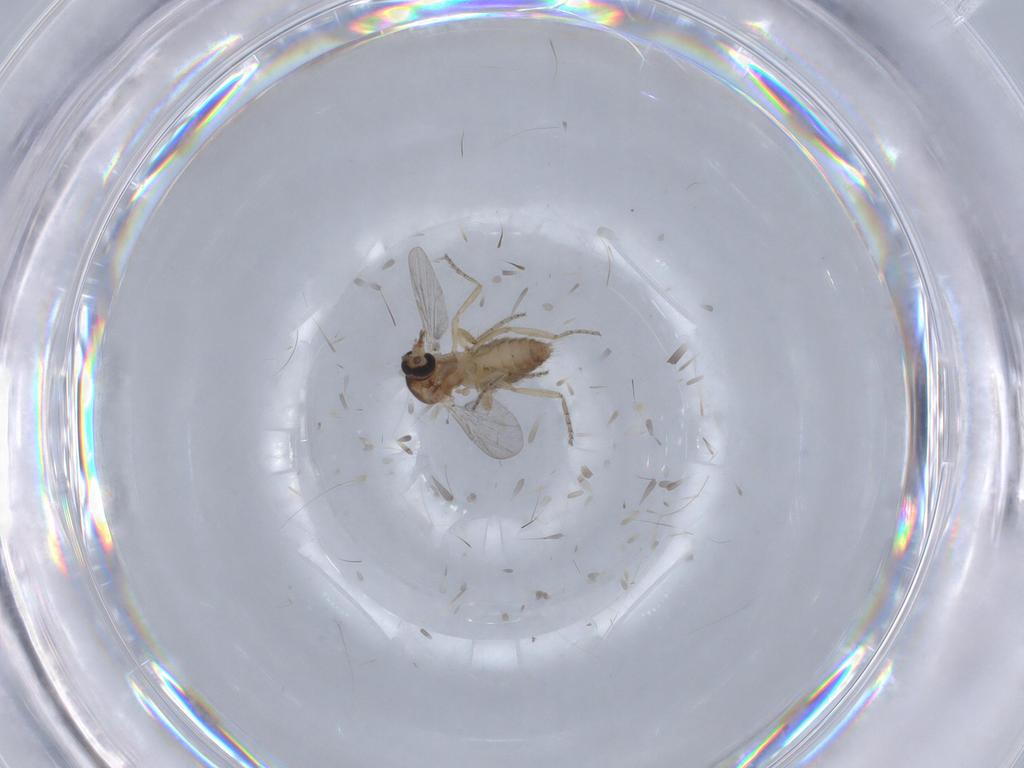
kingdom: Animalia
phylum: Arthropoda
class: Insecta
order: Diptera
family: Ceratopogonidae
